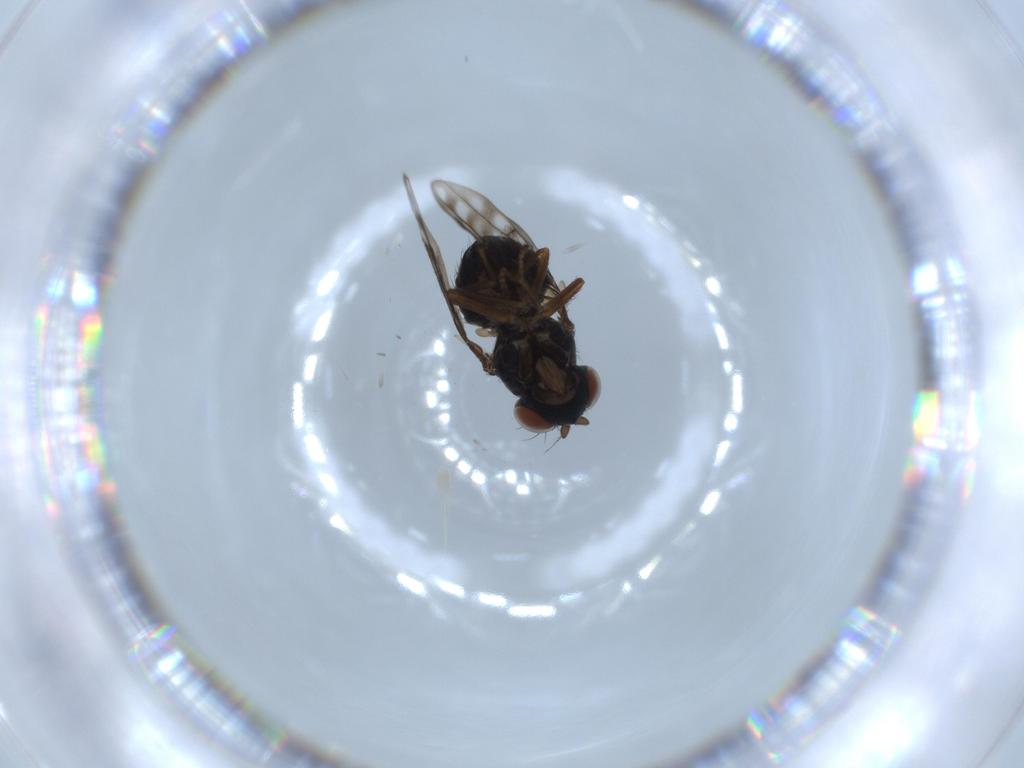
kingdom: Animalia
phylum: Arthropoda
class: Insecta
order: Diptera
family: Ephydridae
